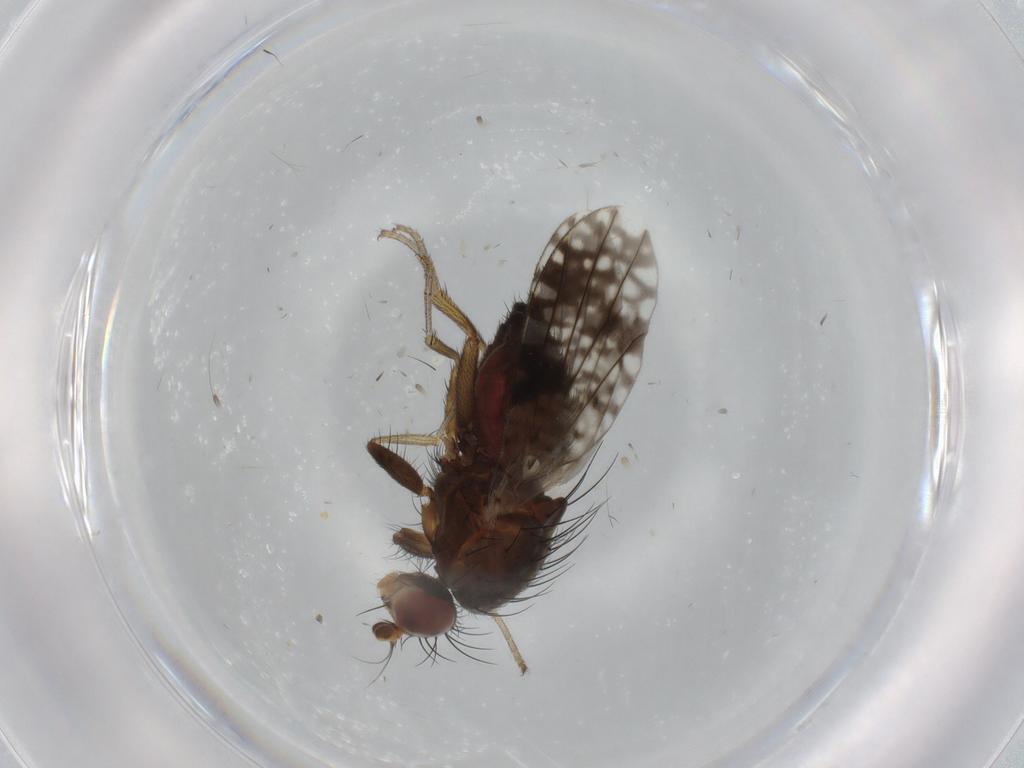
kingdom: Animalia
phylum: Arthropoda
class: Insecta
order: Diptera
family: Tephritidae
